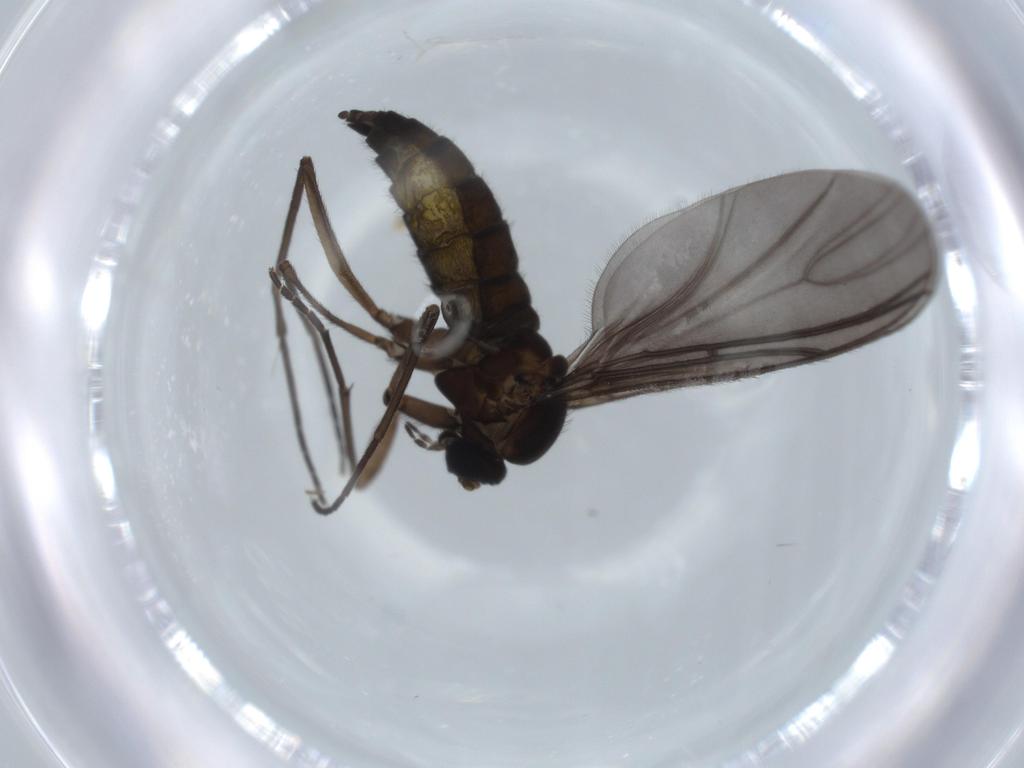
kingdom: Animalia
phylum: Arthropoda
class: Insecta
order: Diptera
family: Sciaridae
